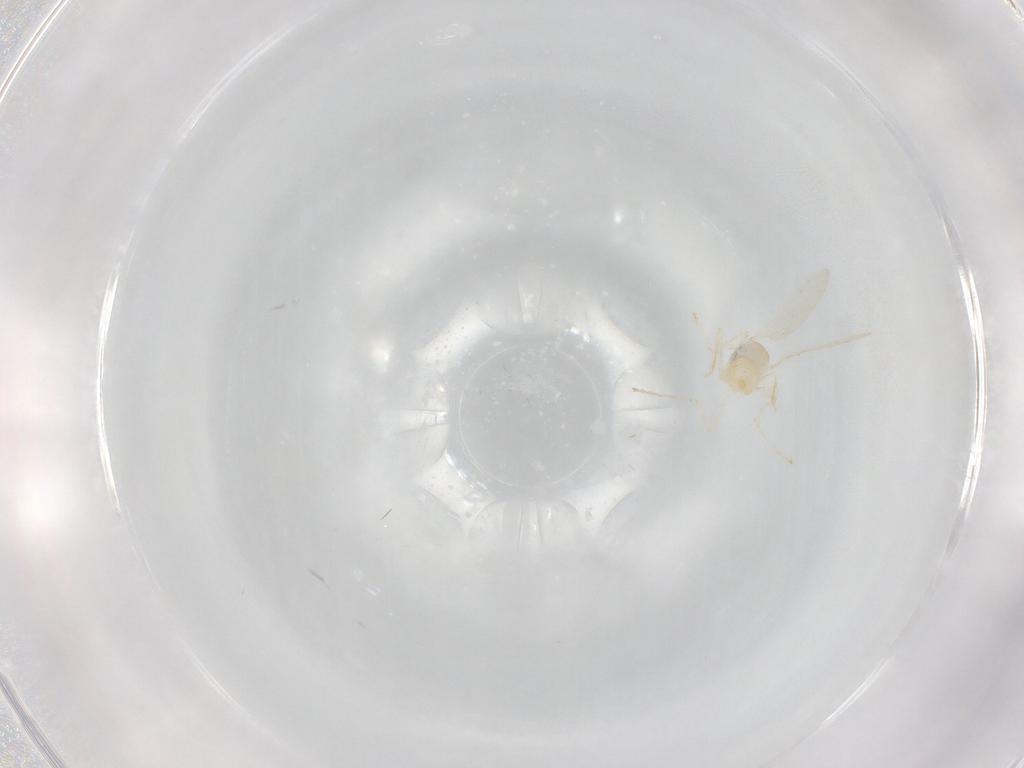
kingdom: Animalia
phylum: Arthropoda
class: Insecta
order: Diptera
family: Cecidomyiidae
